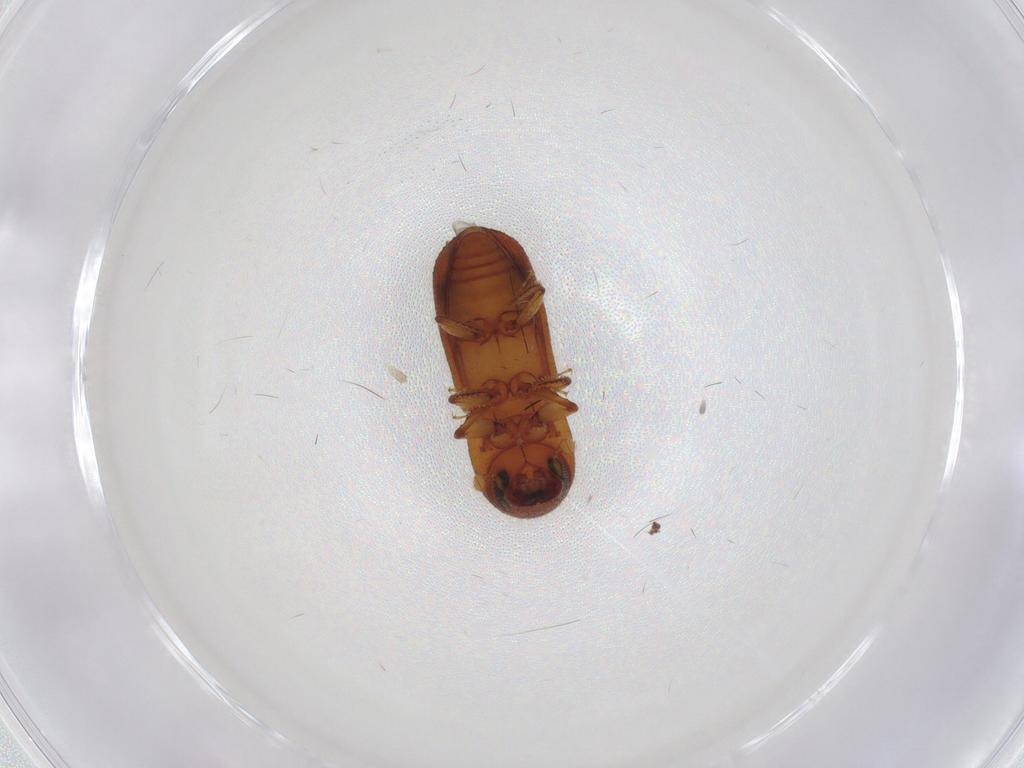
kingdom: Animalia
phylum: Arthropoda
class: Insecta
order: Coleoptera
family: Curculionidae
